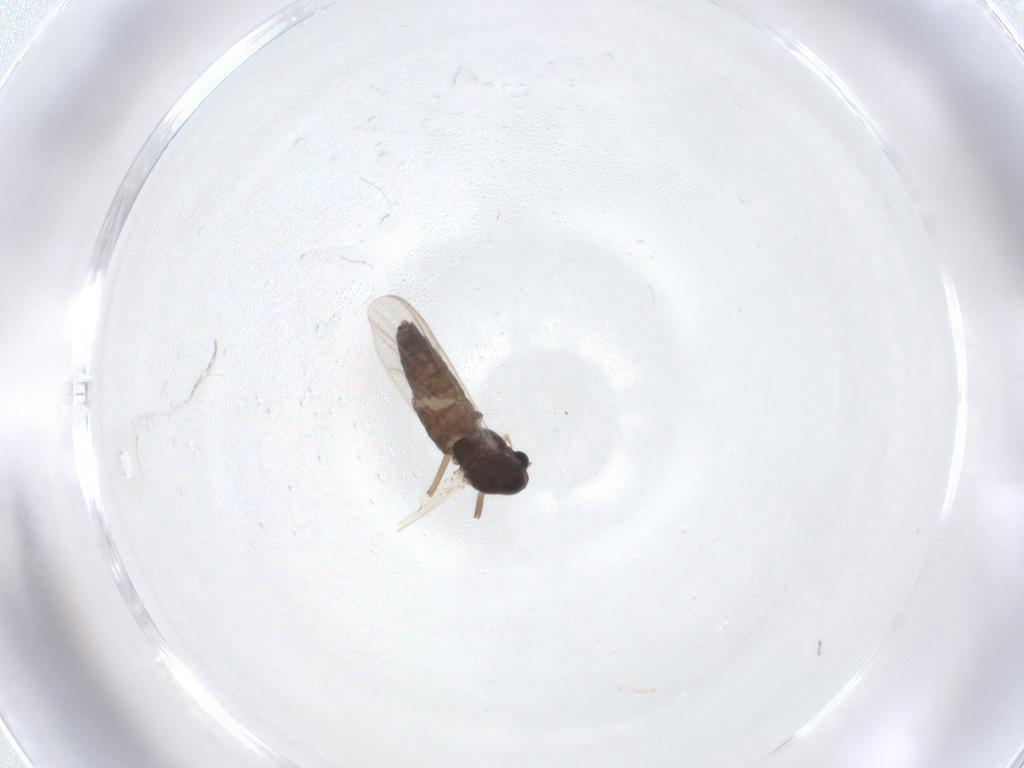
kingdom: Animalia
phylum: Arthropoda
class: Insecta
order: Diptera
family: Chironomidae
